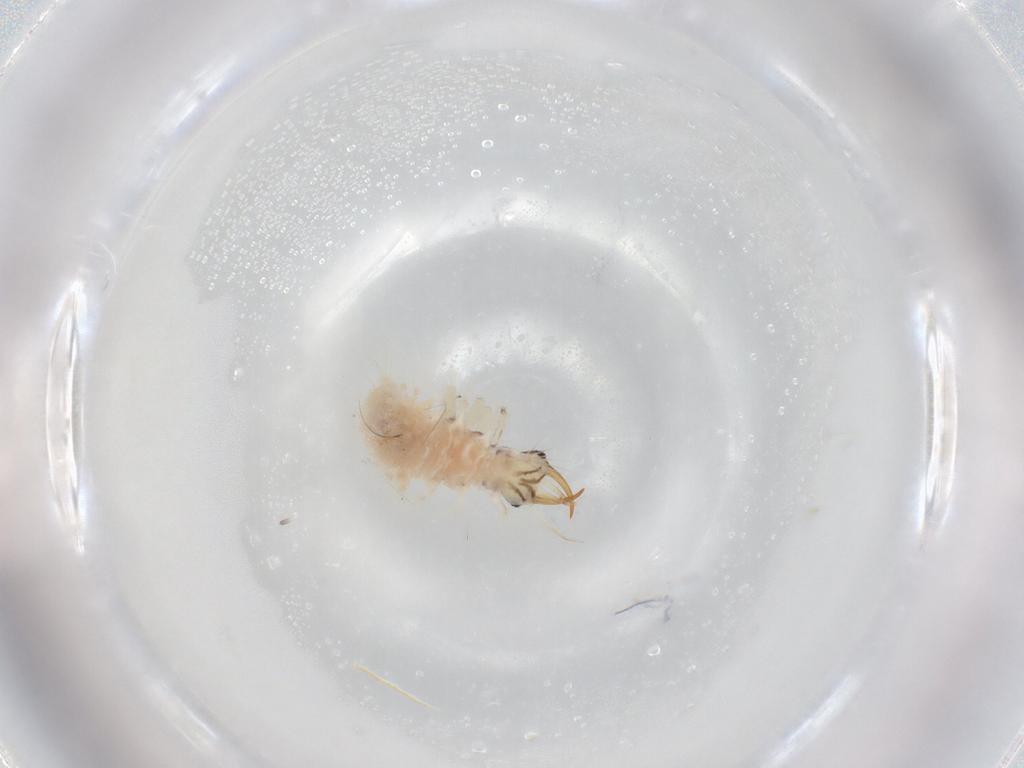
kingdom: Animalia
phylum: Arthropoda
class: Insecta
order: Neuroptera
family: Chrysopidae
